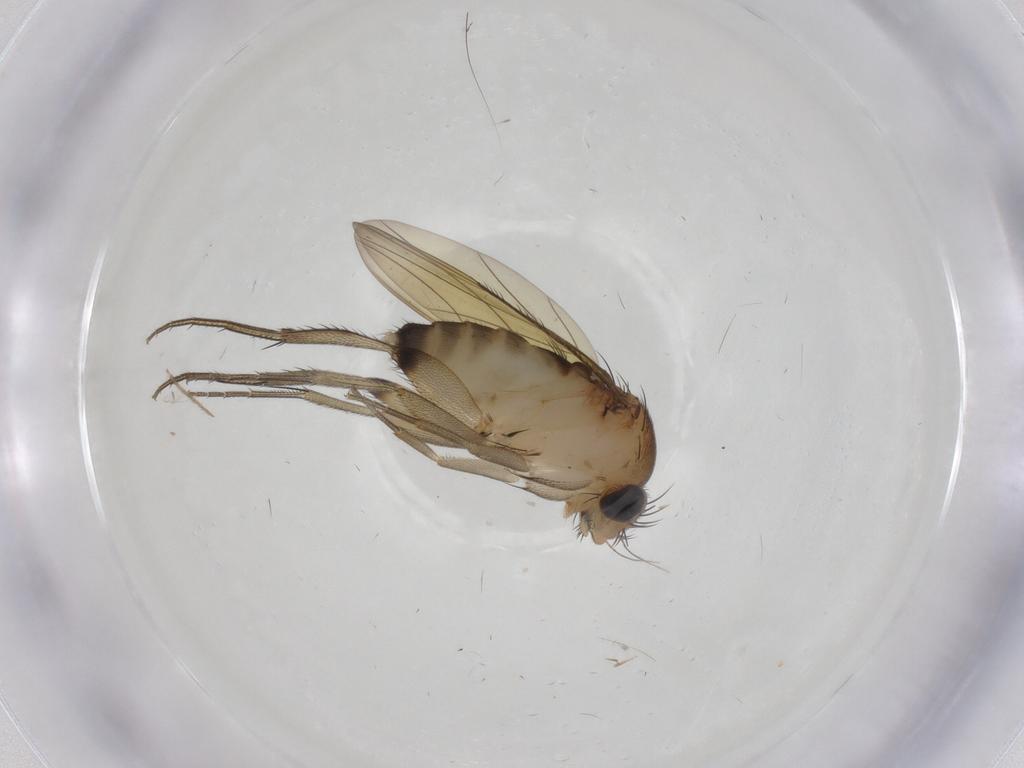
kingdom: Animalia
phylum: Arthropoda
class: Insecta
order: Diptera
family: Phoridae
